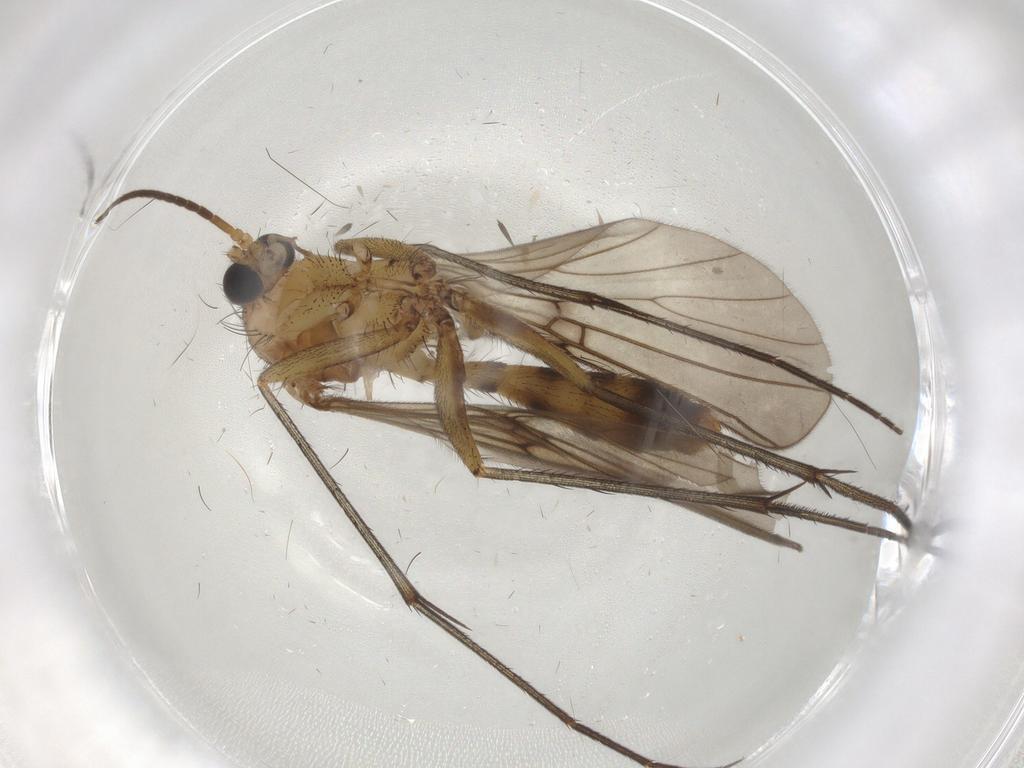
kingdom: Animalia
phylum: Arthropoda
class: Insecta
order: Diptera
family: Mycetophilidae
